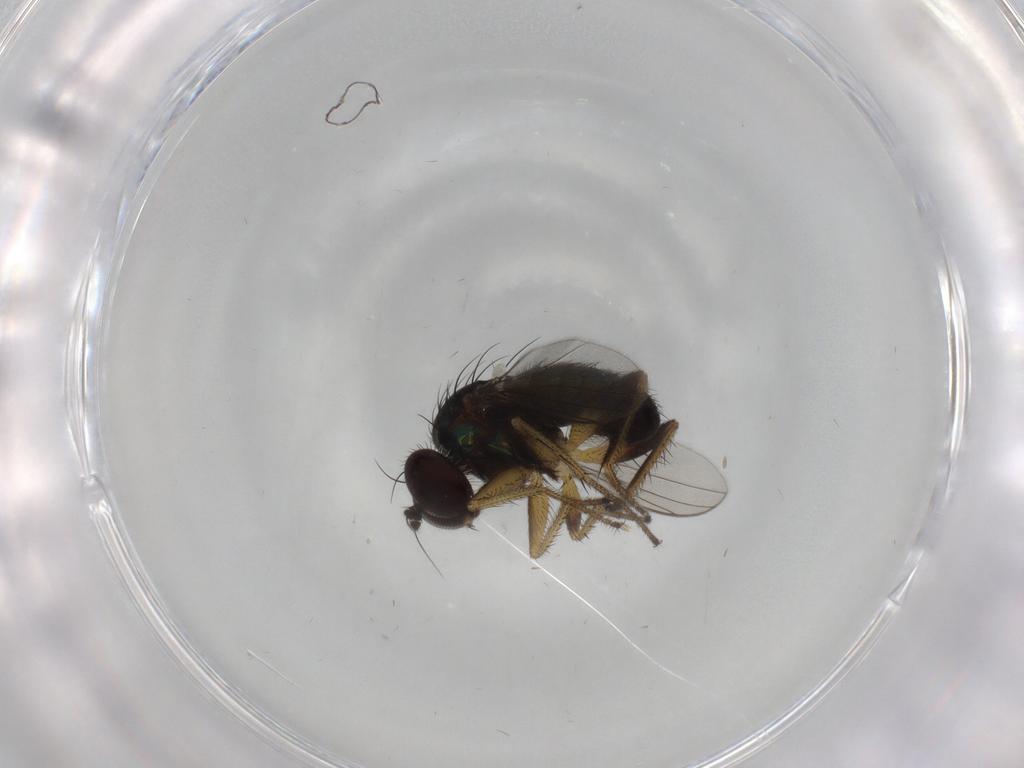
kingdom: Animalia
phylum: Arthropoda
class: Insecta
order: Diptera
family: Dolichopodidae
